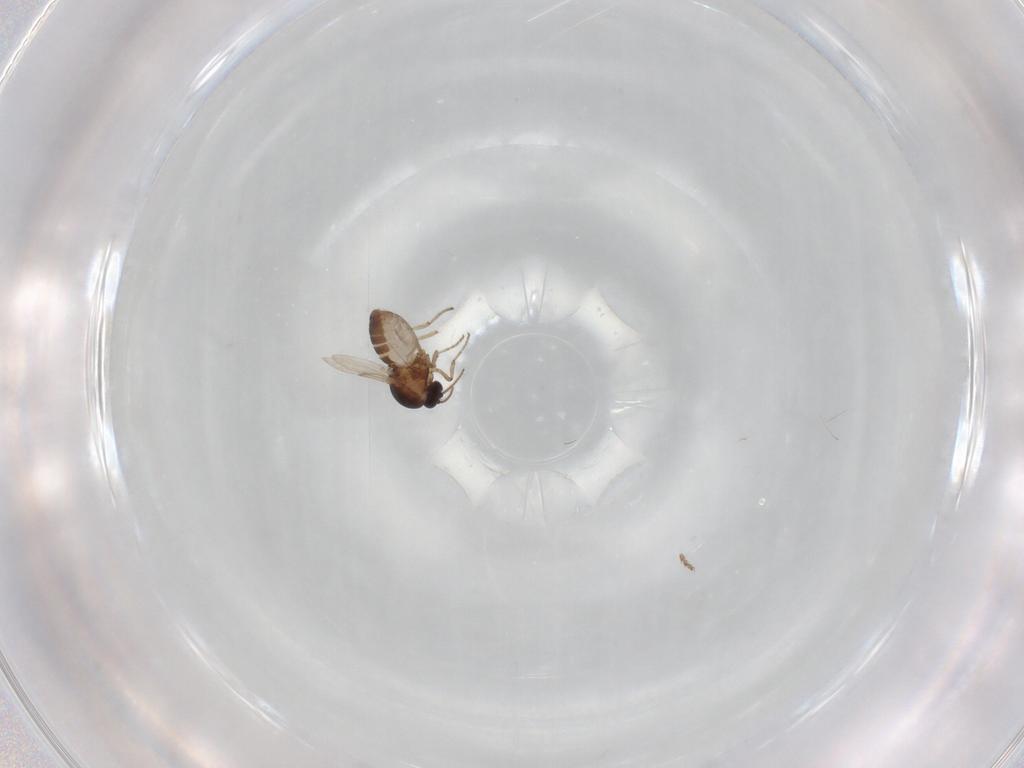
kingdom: Animalia
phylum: Arthropoda
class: Insecta
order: Diptera
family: Ceratopogonidae
